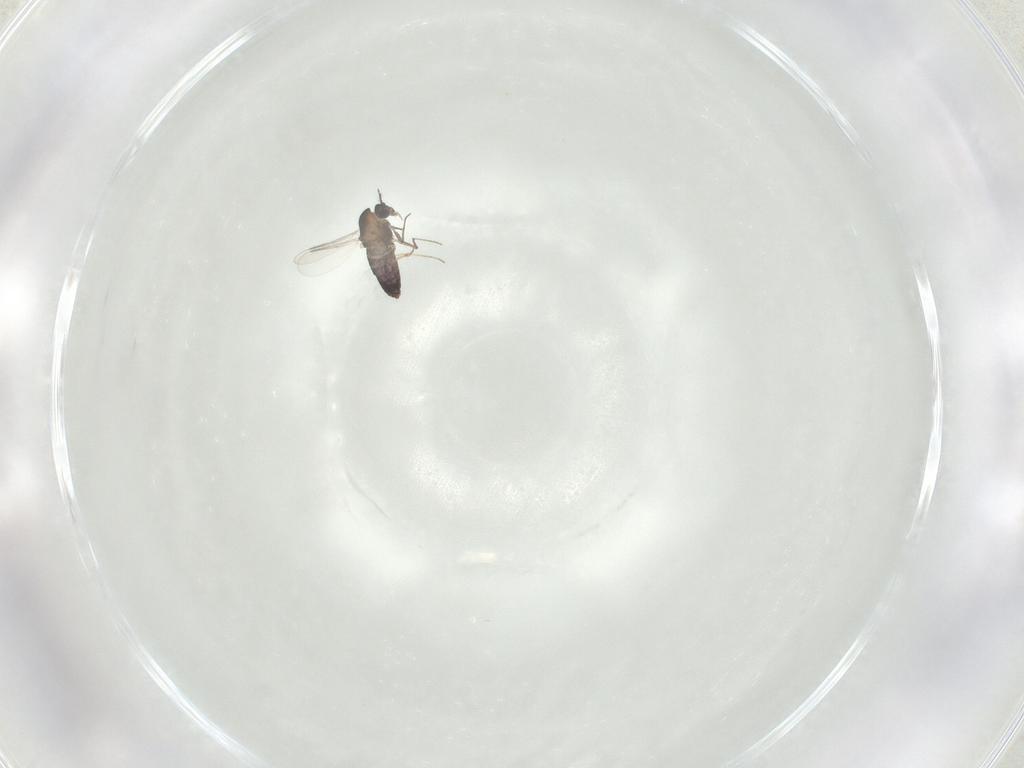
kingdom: Animalia
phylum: Arthropoda
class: Insecta
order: Diptera
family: Chironomidae
